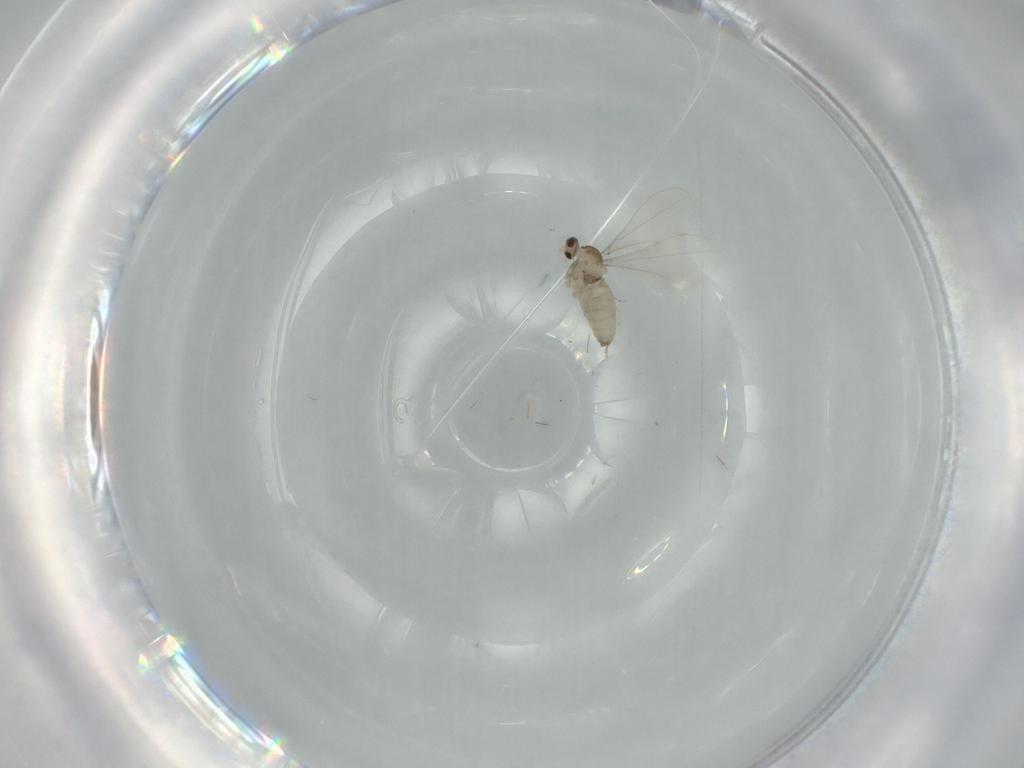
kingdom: Animalia
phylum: Arthropoda
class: Insecta
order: Diptera
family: Cecidomyiidae
